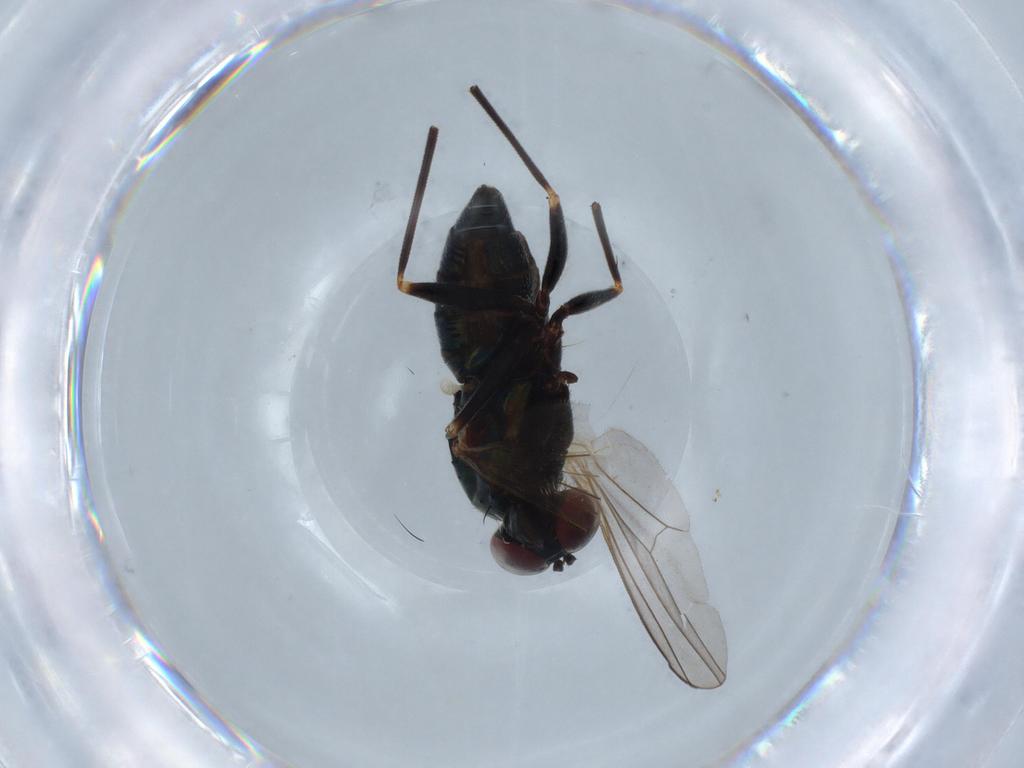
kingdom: Animalia
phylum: Arthropoda
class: Insecta
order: Diptera
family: Dolichopodidae
